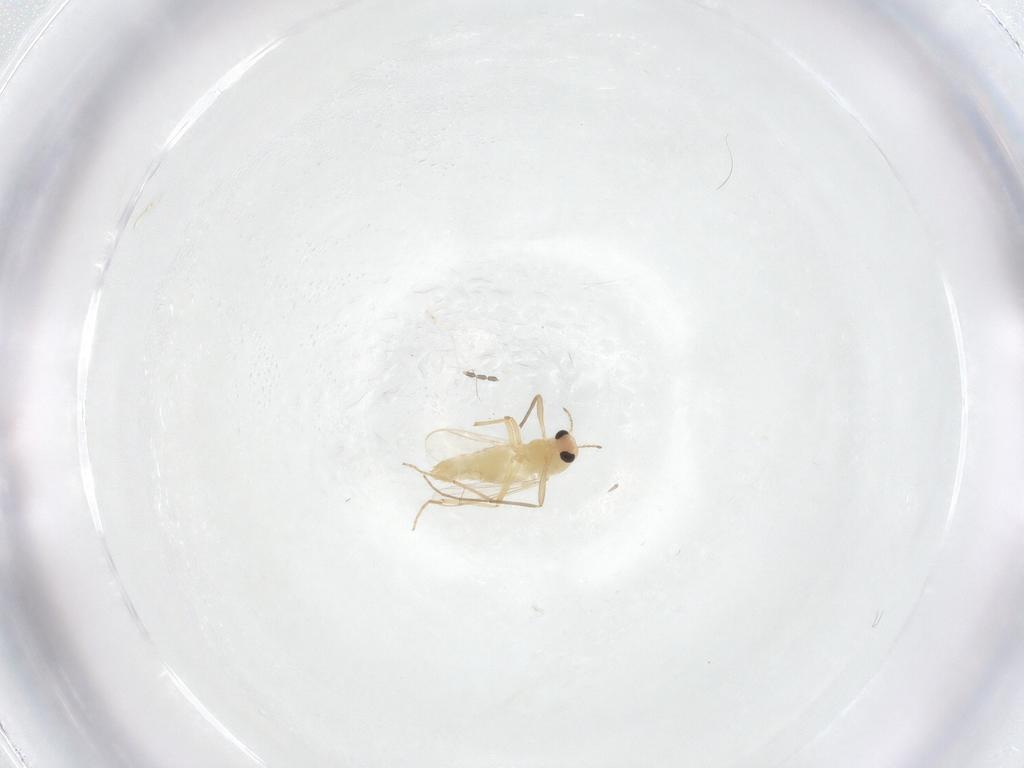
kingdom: Animalia
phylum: Arthropoda
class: Insecta
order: Diptera
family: Chironomidae
